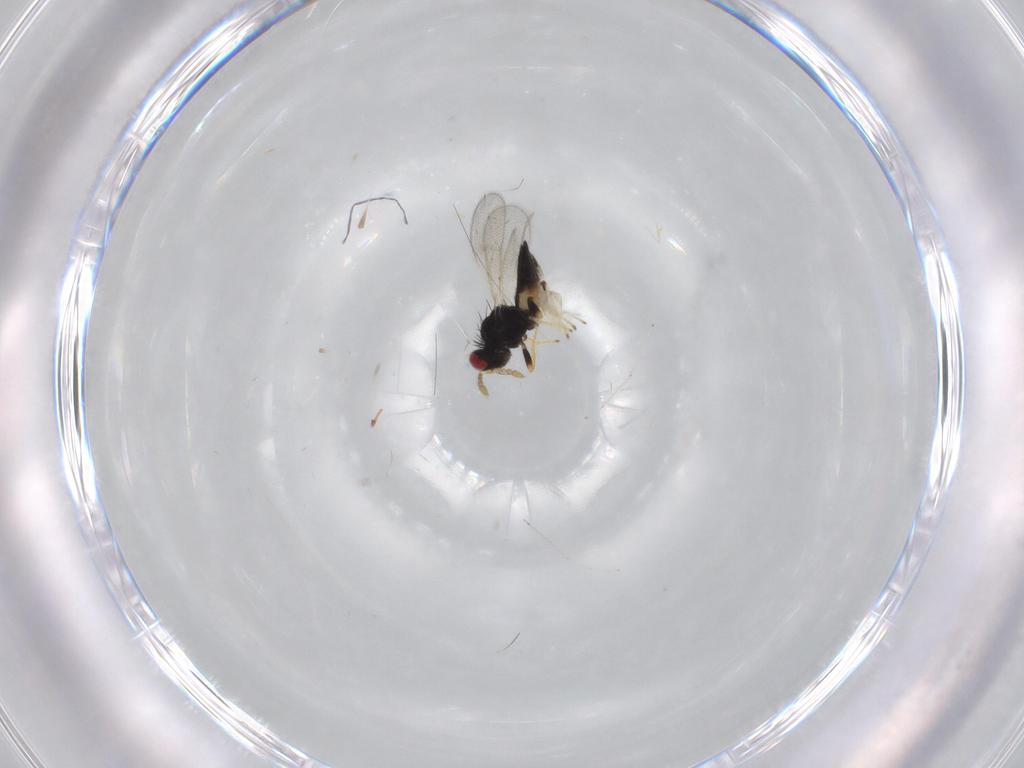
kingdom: Animalia
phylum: Arthropoda
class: Insecta
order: Hymenoptera
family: Eulophidae
